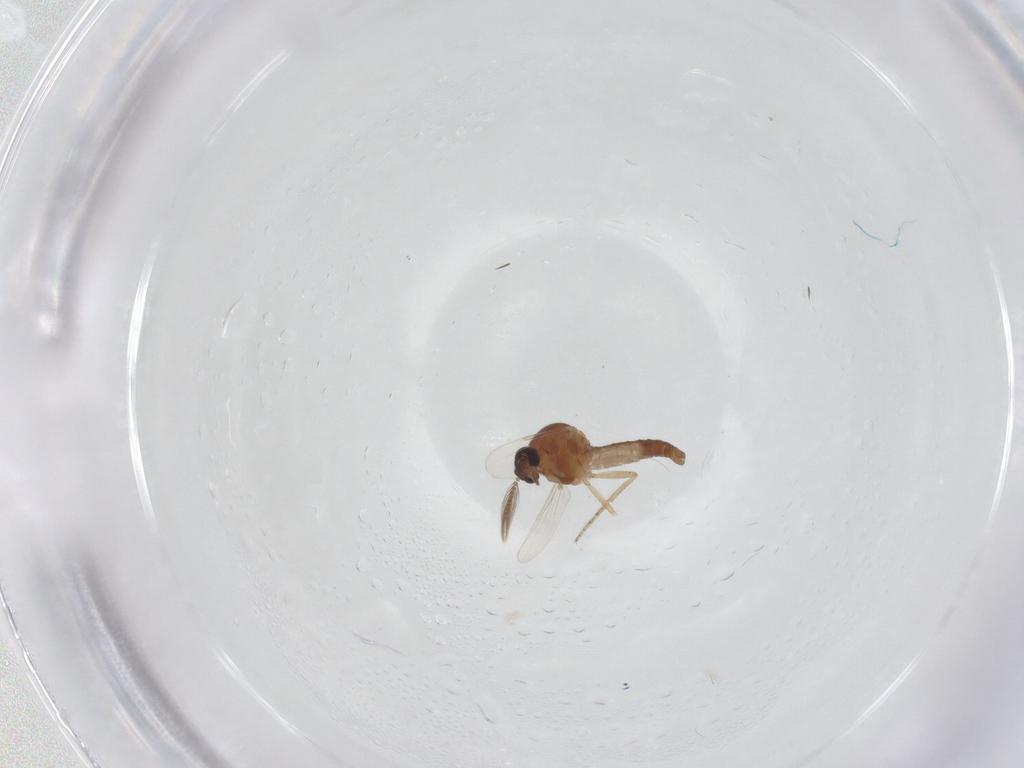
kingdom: Animalia
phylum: Arthropoda
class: Insecta
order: Diptera
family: Ceratopogonidae
